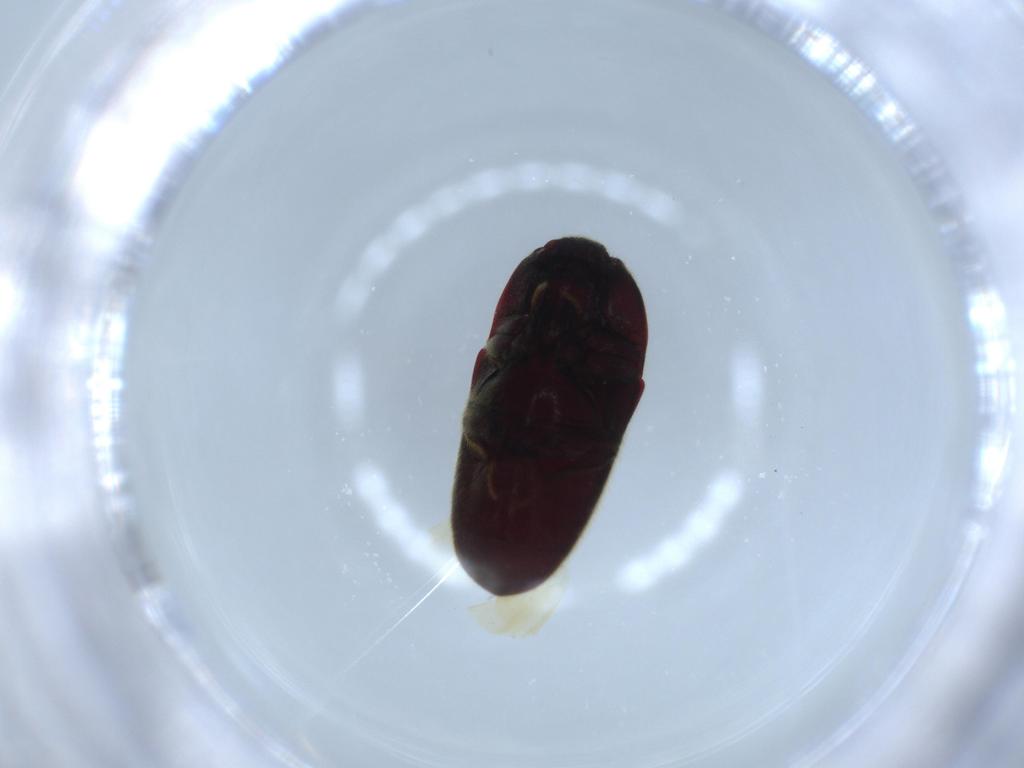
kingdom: Animalia
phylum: Arthropoda
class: Insecta
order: Coleoptera
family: Throscidae
